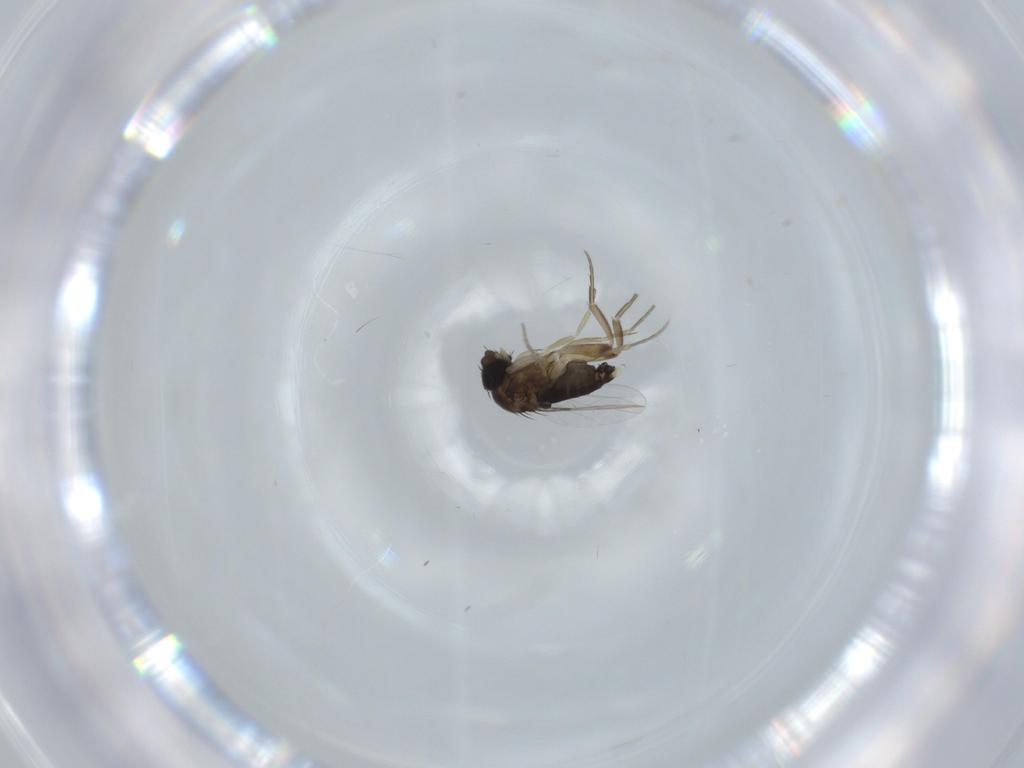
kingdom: Animalia
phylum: Arthropoda
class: Insecta
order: Diptera
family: Phoridae
